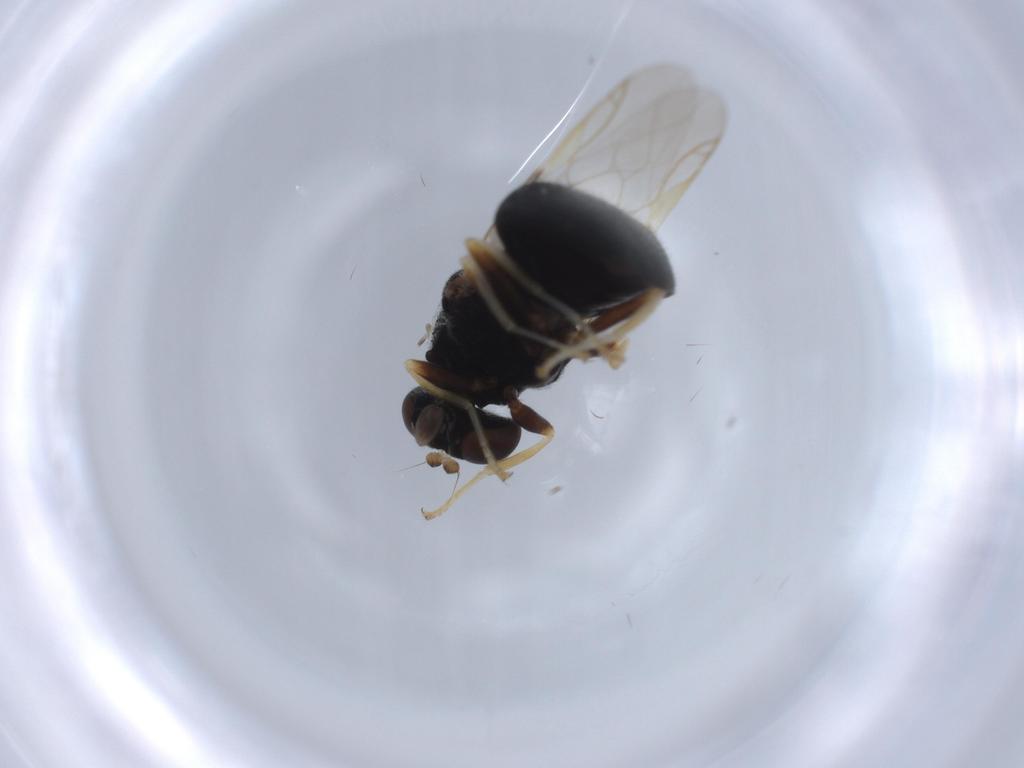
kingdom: Animalia
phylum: Arthropoda
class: Insecta
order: Diptera
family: Stratiomyidae
